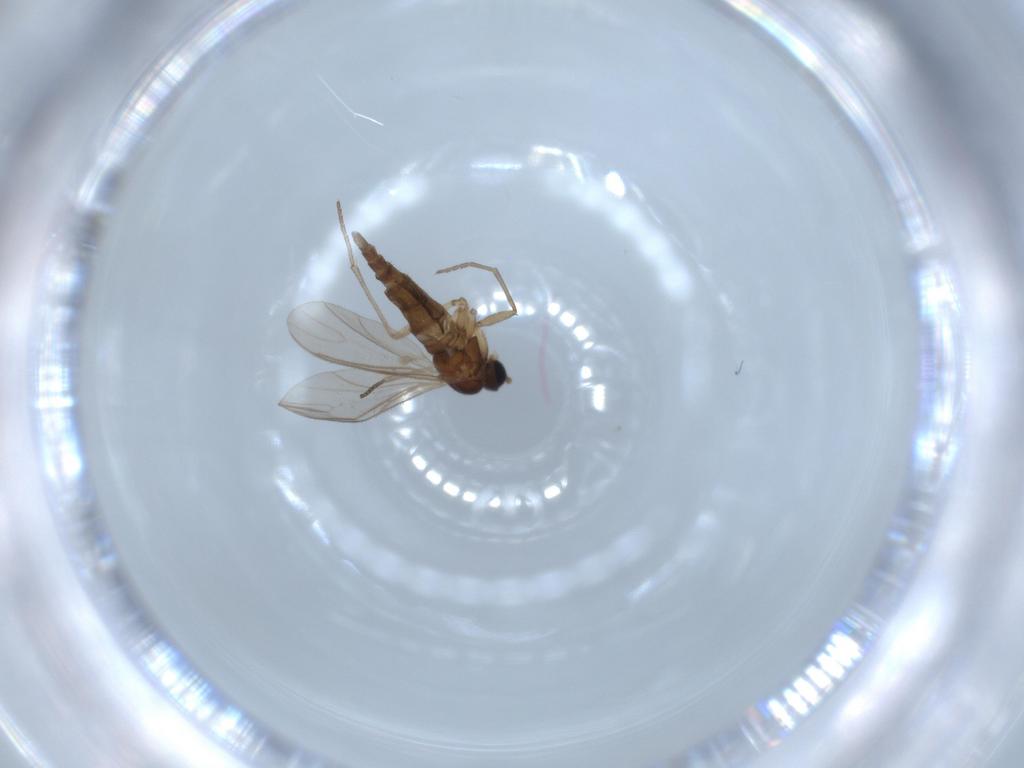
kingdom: Animalia
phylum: Arthropoda
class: Insecta
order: Diptera
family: Sciaridae
